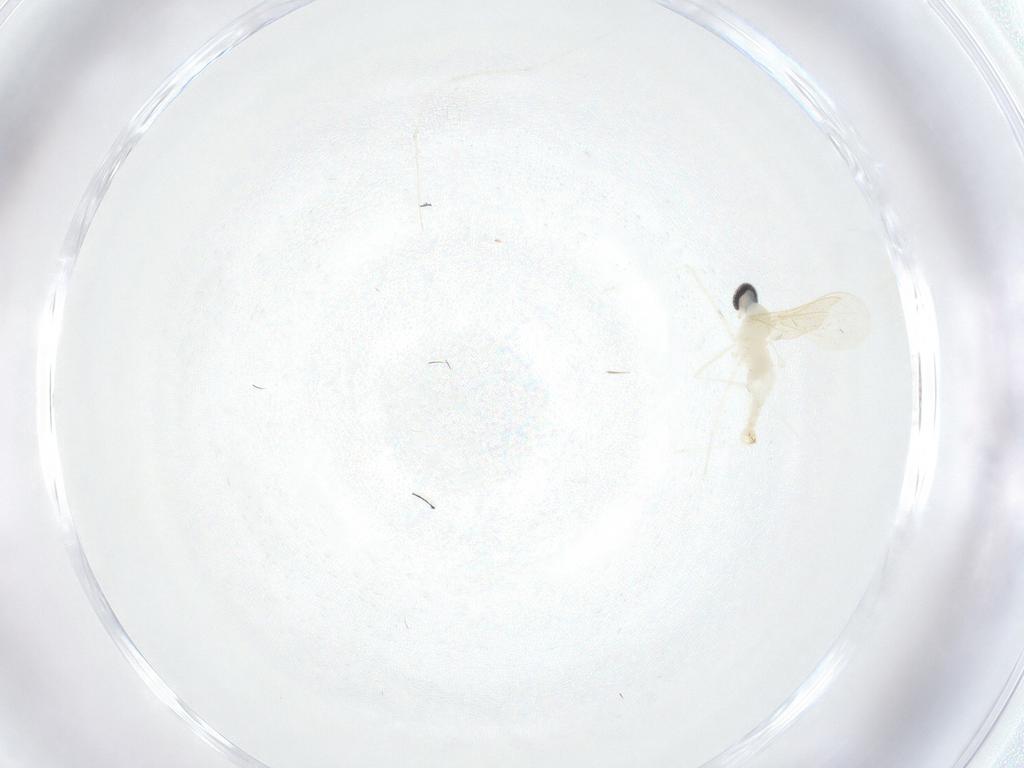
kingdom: Animalia
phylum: Arthropoda
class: Insecta
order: Diptera
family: Cecidomyiidae
